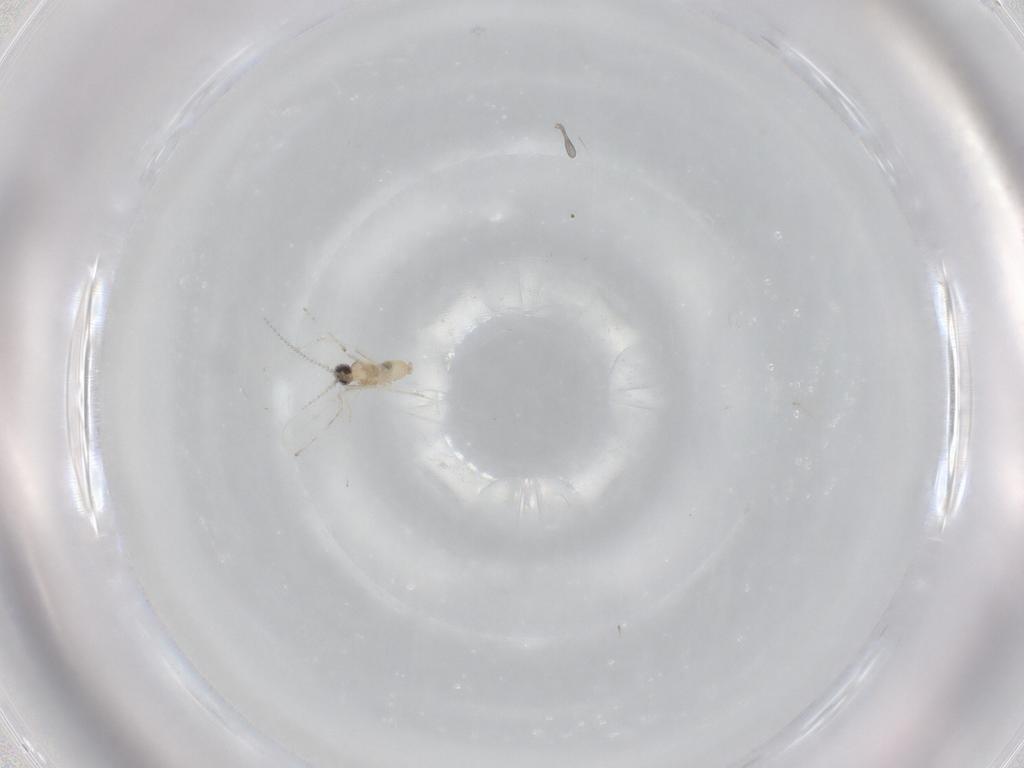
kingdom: Animalia
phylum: Arthropoda
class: Insecta
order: Diptera
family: Cecidomyiidae
